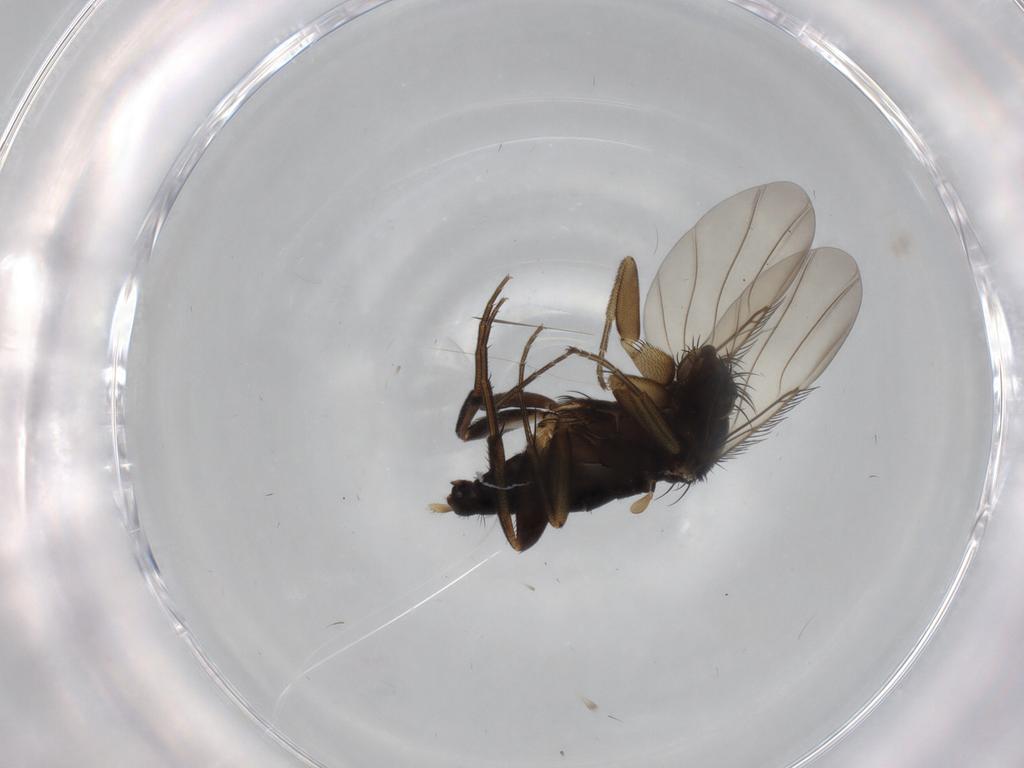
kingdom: Animalia
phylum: Arthropoda
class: Insecta
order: Diptera
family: Phoridae
